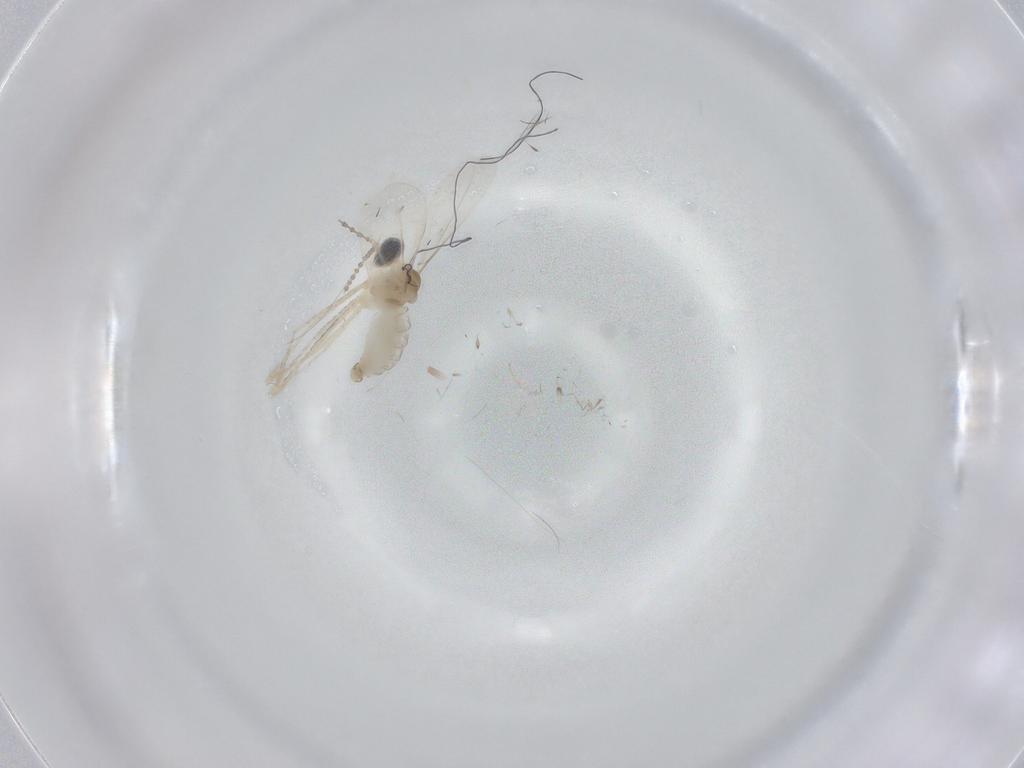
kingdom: Animalia
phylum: Arthropoda
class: Insecta
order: Diptera
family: Cecidomyiidae
